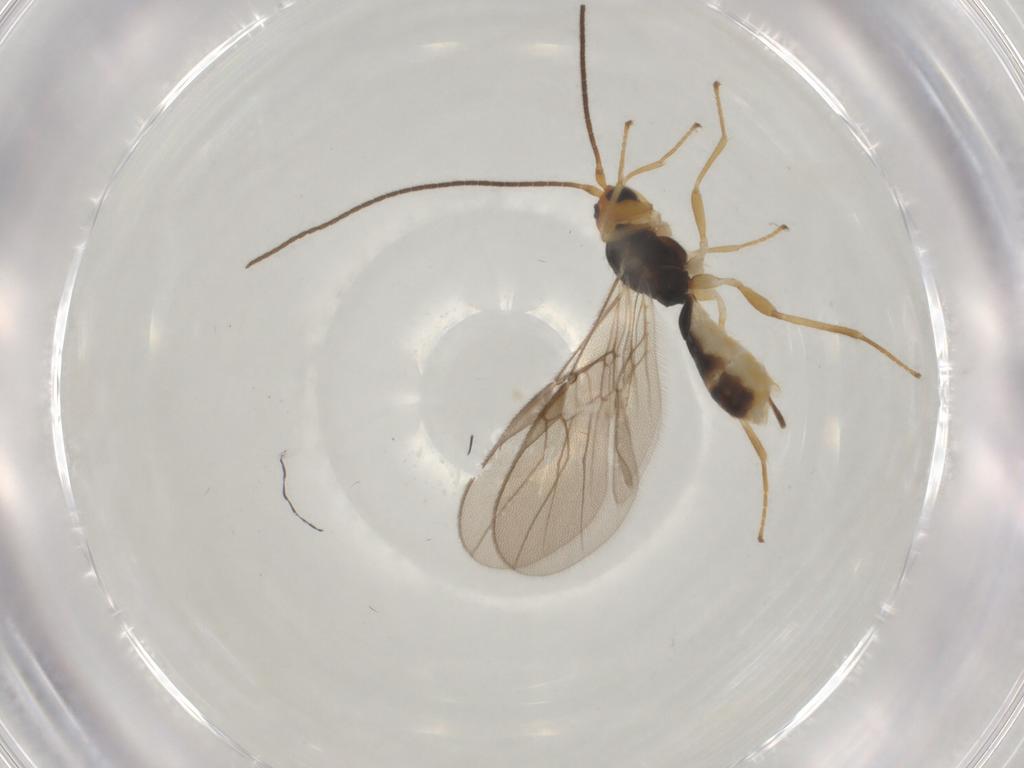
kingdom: Animalia
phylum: Arthropoda
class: Insecta
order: Hymenoptera
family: Braconidae
